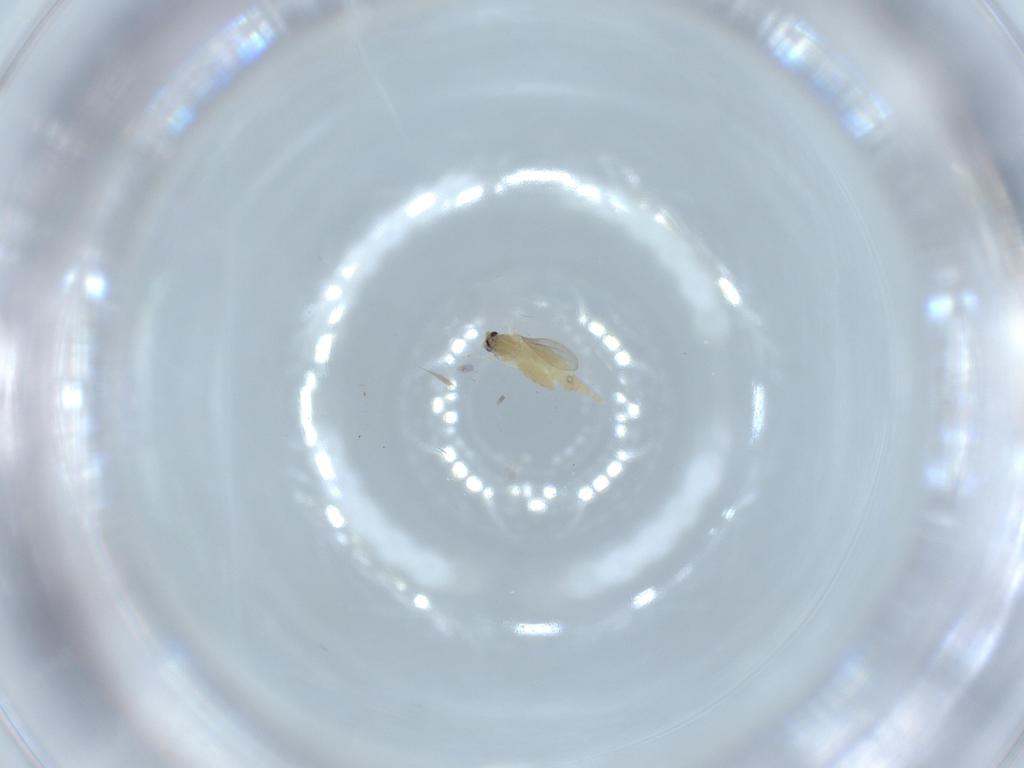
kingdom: Animalia
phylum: Arthropoda
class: Insecta
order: Diptera
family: Cecidomyiidae
